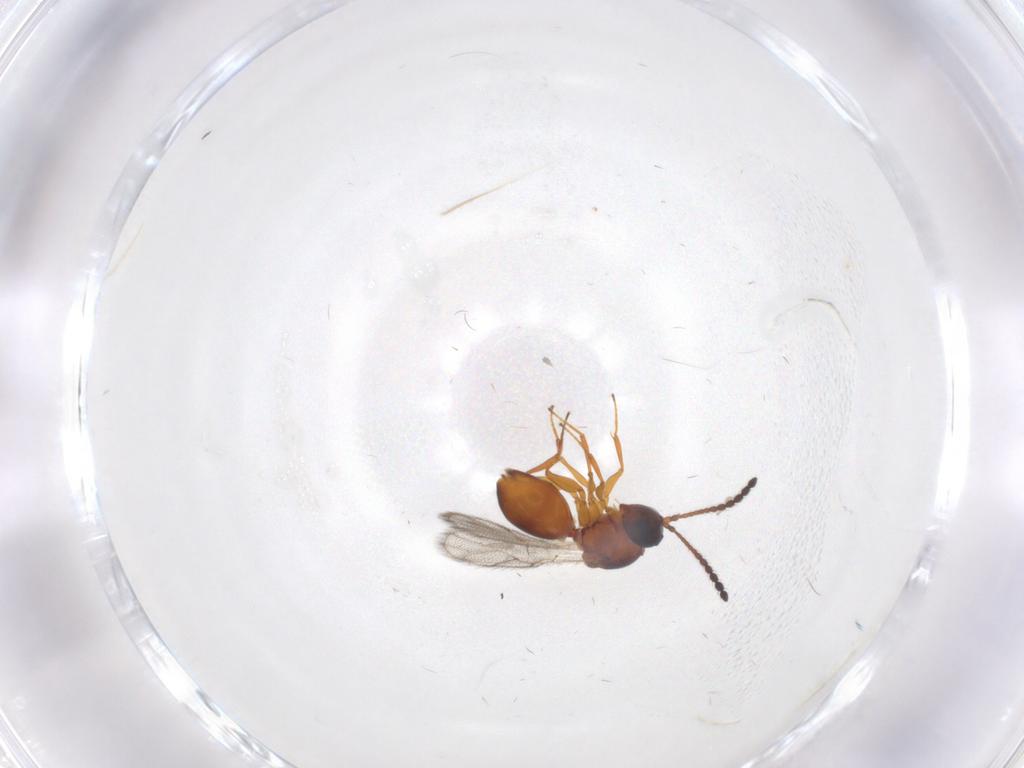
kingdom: Animalia
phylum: Arthropoda
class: Insecta
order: Hymenoptera
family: Figitidae
